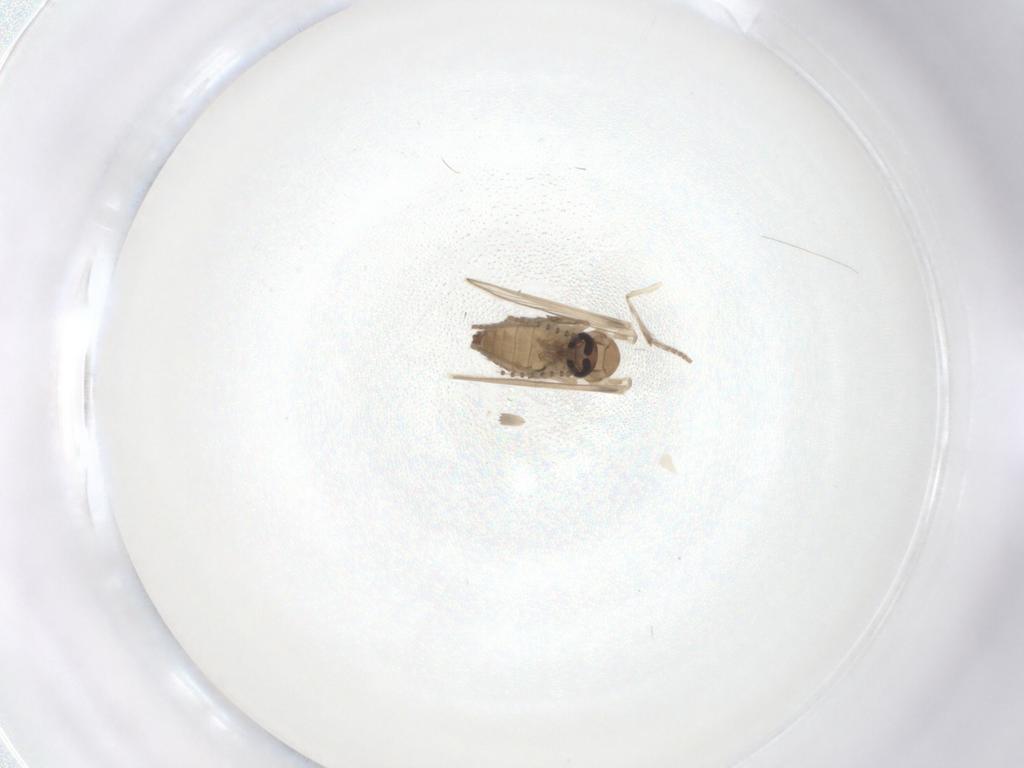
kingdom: Animalia
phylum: Arthropoda
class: Insecta
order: Diptera
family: Psychodidae
